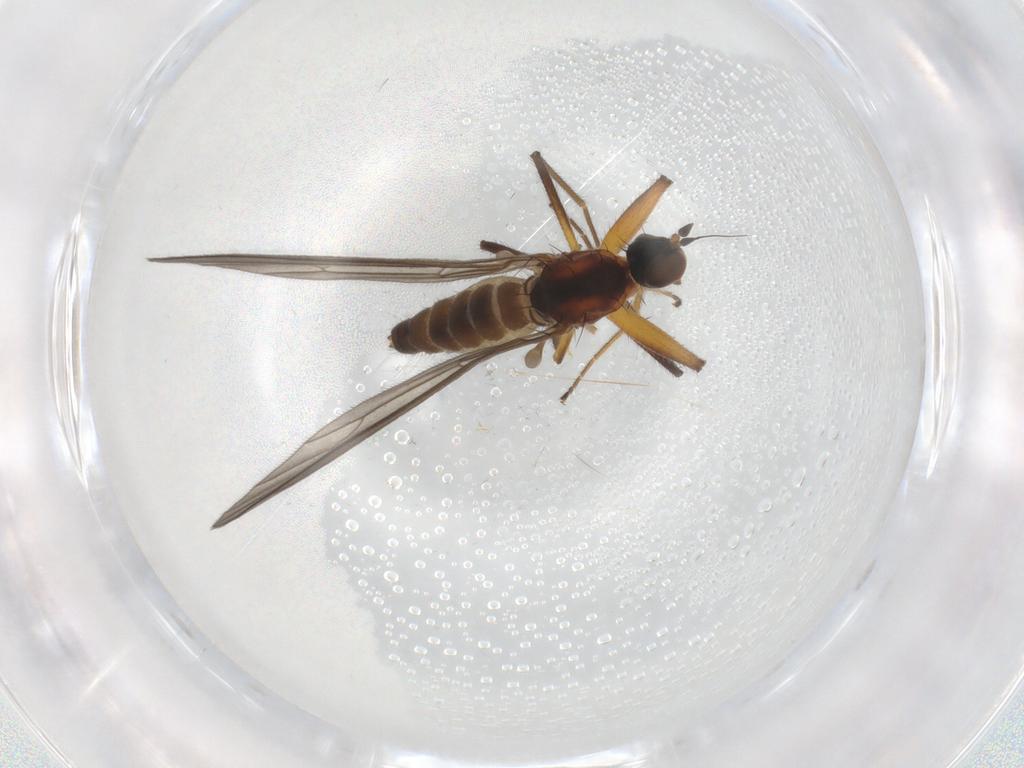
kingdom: Animalia
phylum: Arthropoda
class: Insecta
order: Diptera
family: Empididae
